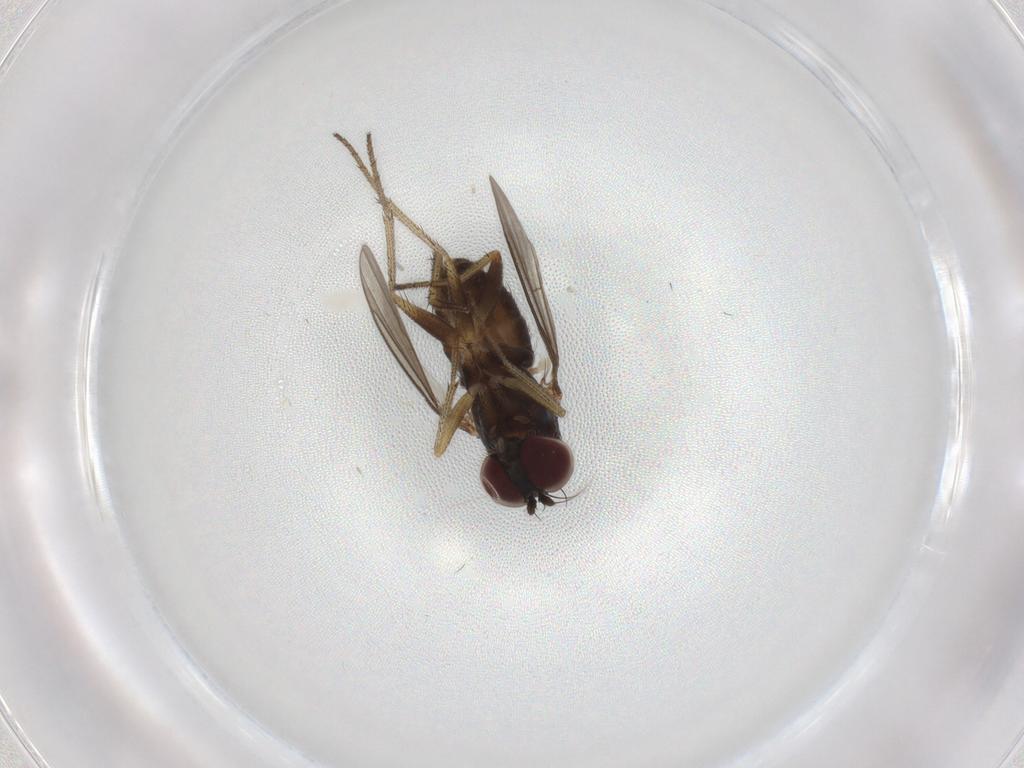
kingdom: Animalia
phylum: Arthropoda
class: Insecta
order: Diptera
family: Dolichopodidae
